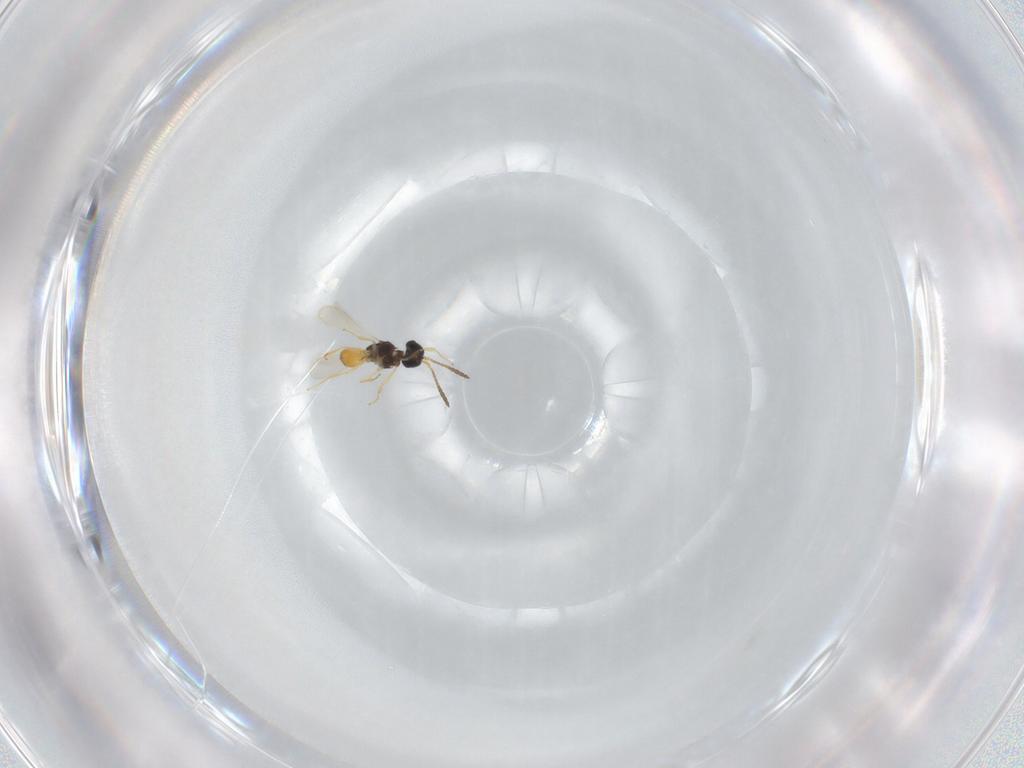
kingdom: Animalia
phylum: Arthropoda
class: Insecta
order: Hymenoptera
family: Scelionidae
